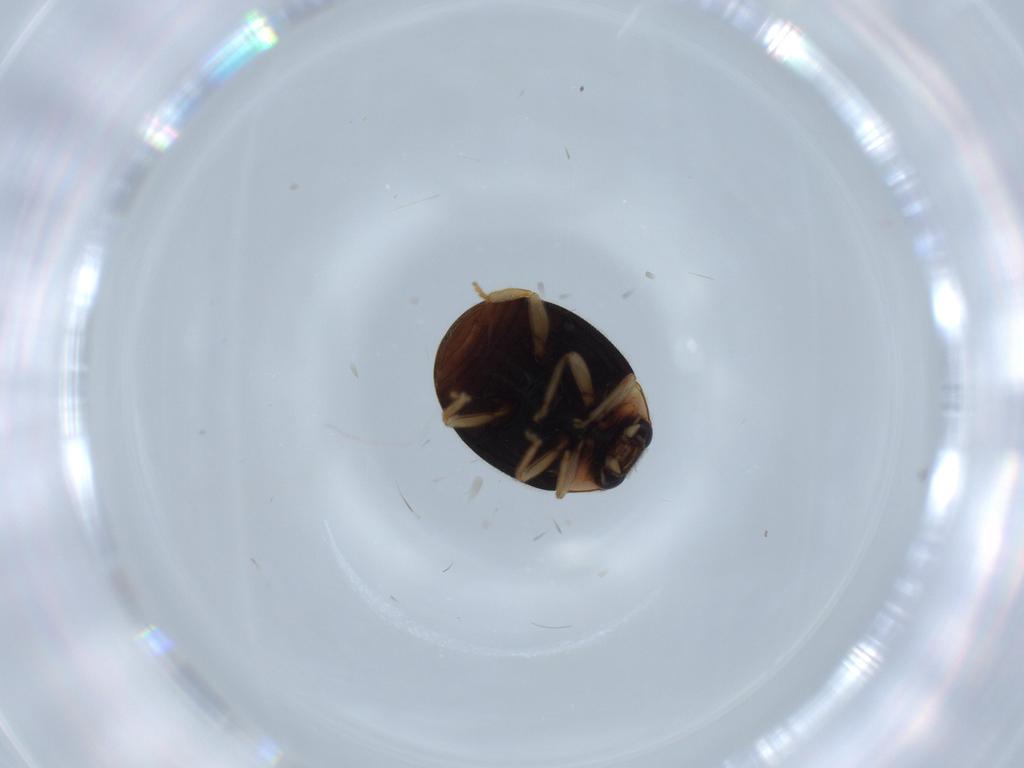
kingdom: Animalia
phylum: Arthropoda
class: Insecta
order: Coleoptera
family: Coccinellidae
